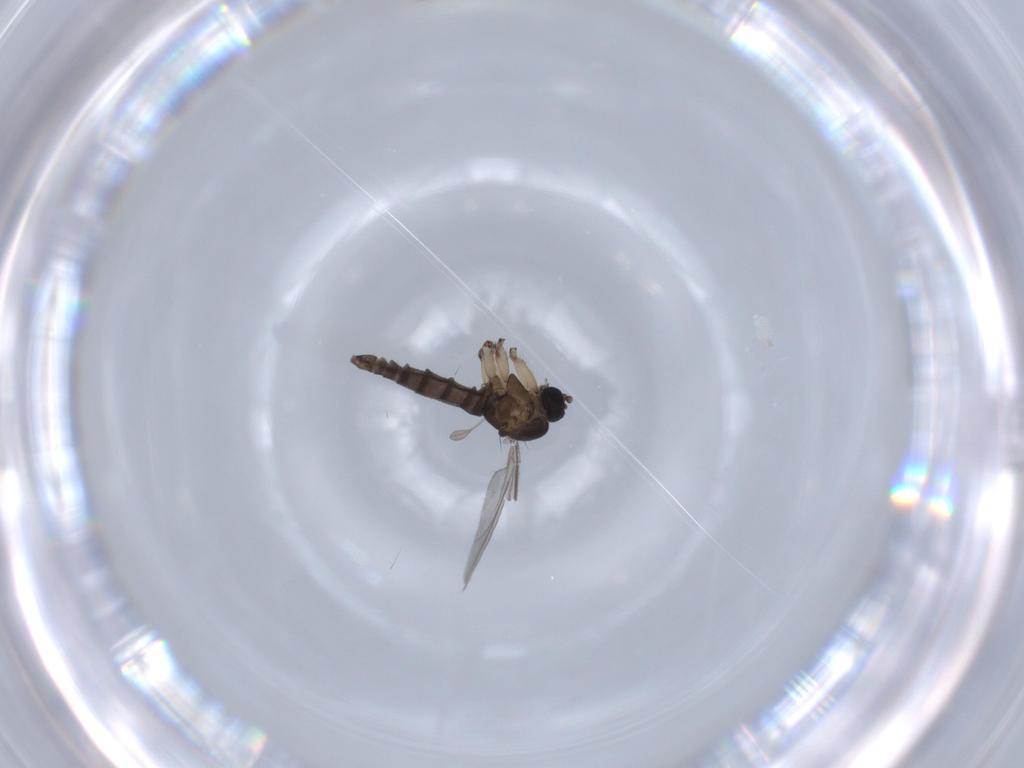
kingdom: Animalia
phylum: Arthropoda
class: Insecta
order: Diptera
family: Sciaridae
